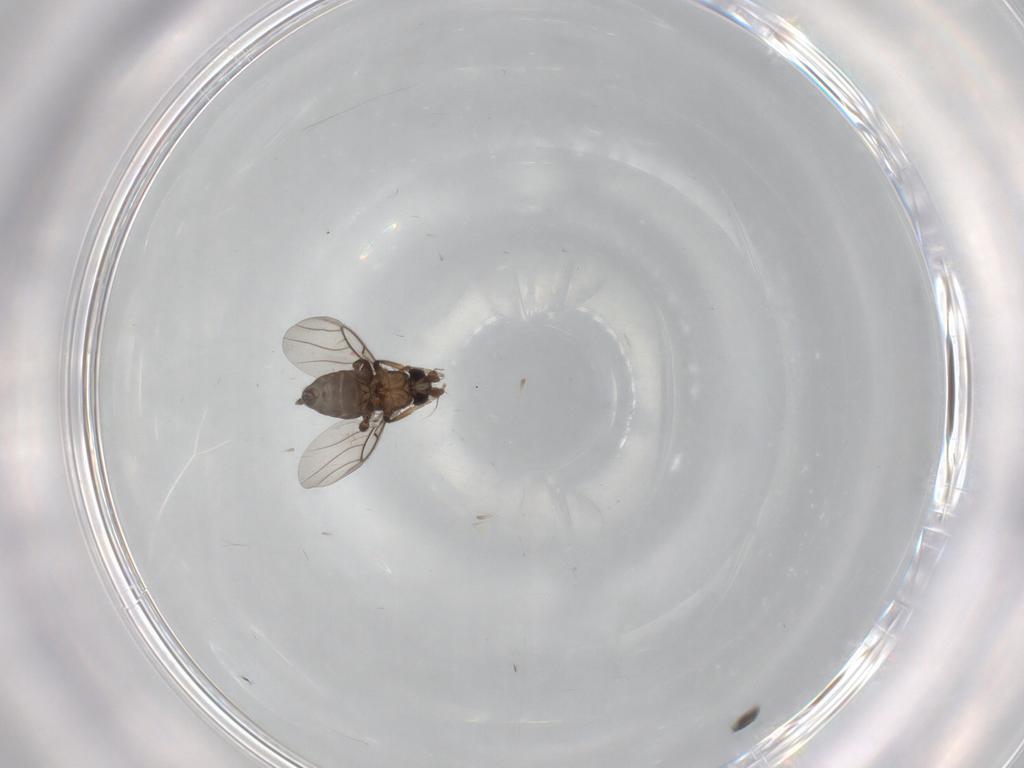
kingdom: Animalia
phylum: Arthropoda
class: Insecta
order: Diptera
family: Phoridae
